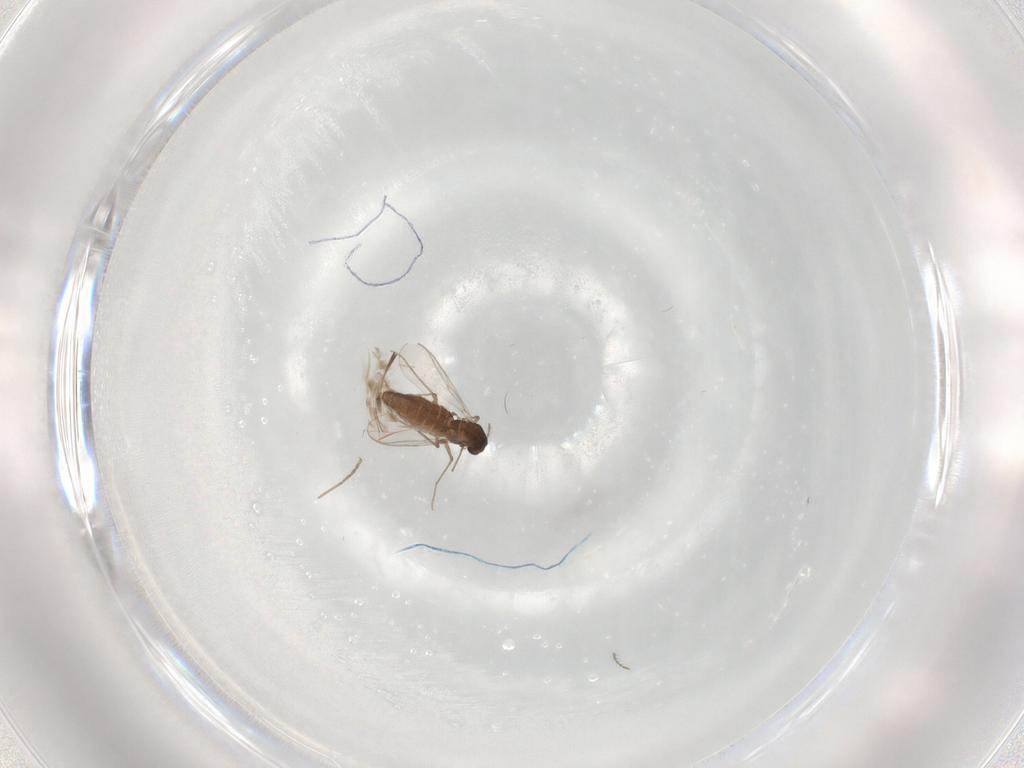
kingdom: Animalia
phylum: Arthropoda
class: Insecta
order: Diptera
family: Chironomidae
